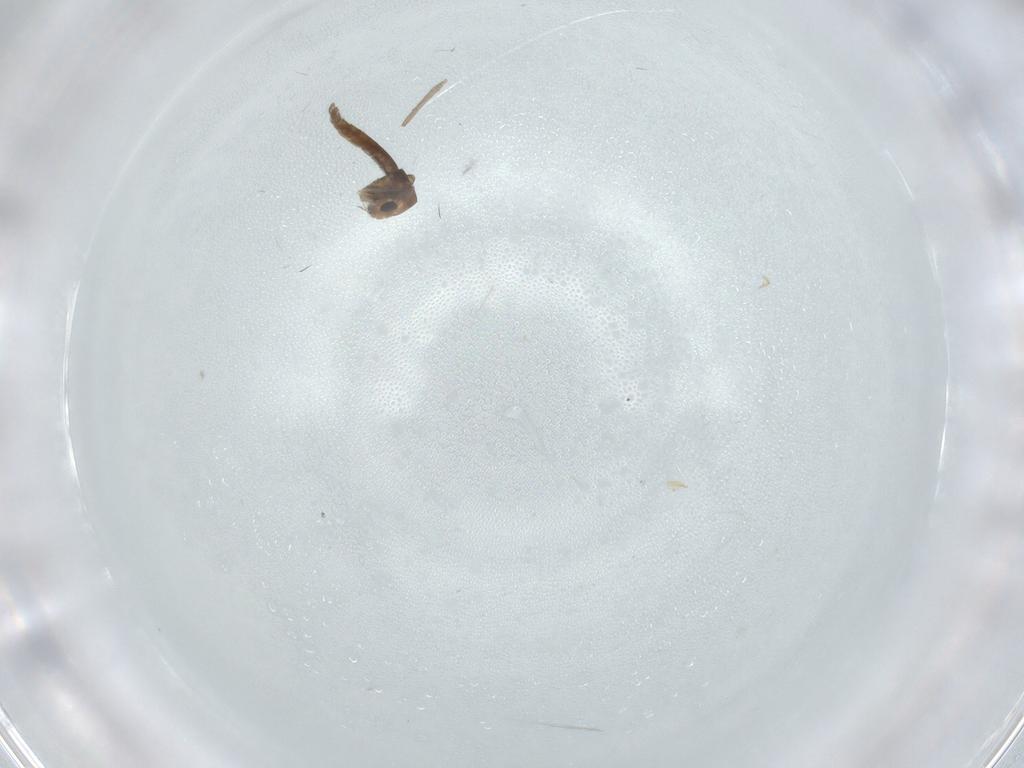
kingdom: Animalia
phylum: Arthropoda
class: Insecta
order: Diptera
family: Chironomidae
